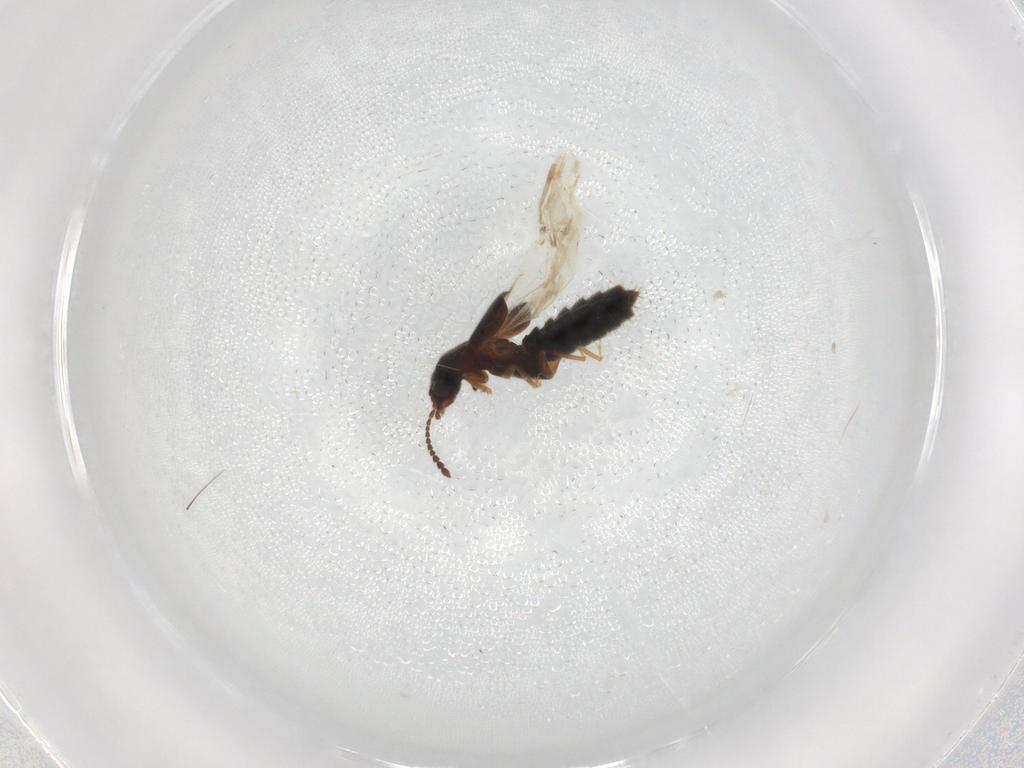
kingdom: Animalia
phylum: Arthropoda
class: Insecta
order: Coleoptera
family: Staphylinidae
